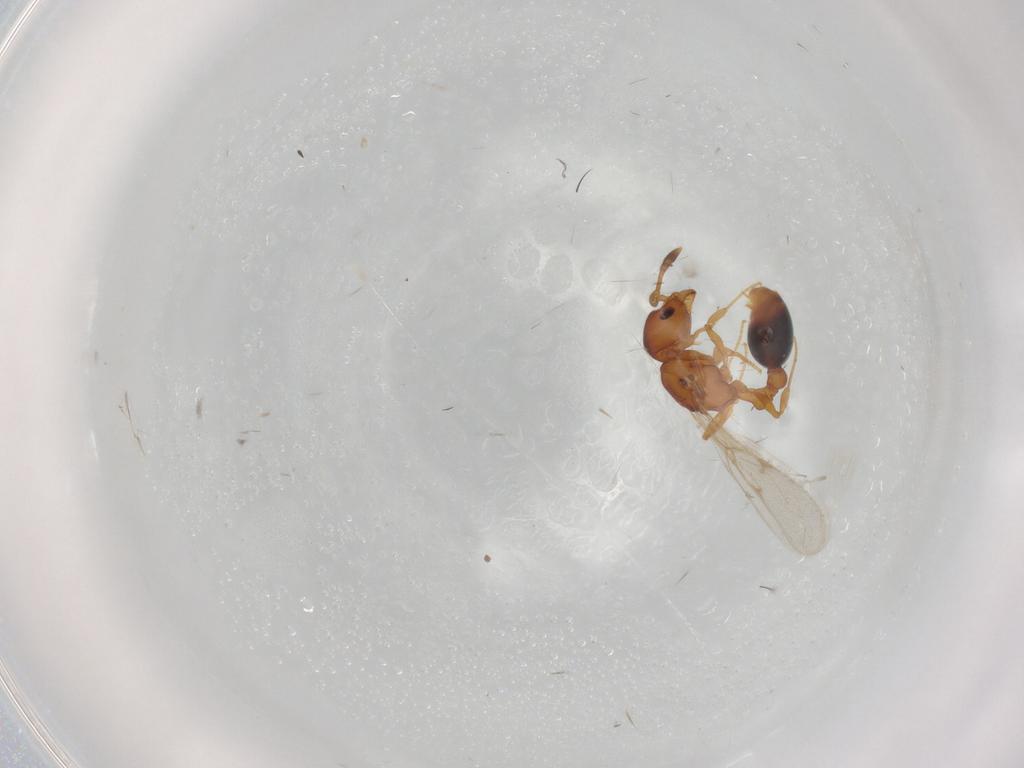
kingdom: Animalia
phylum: Arthropoda
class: Insecta
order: Hymenoptera
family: Formicidae
